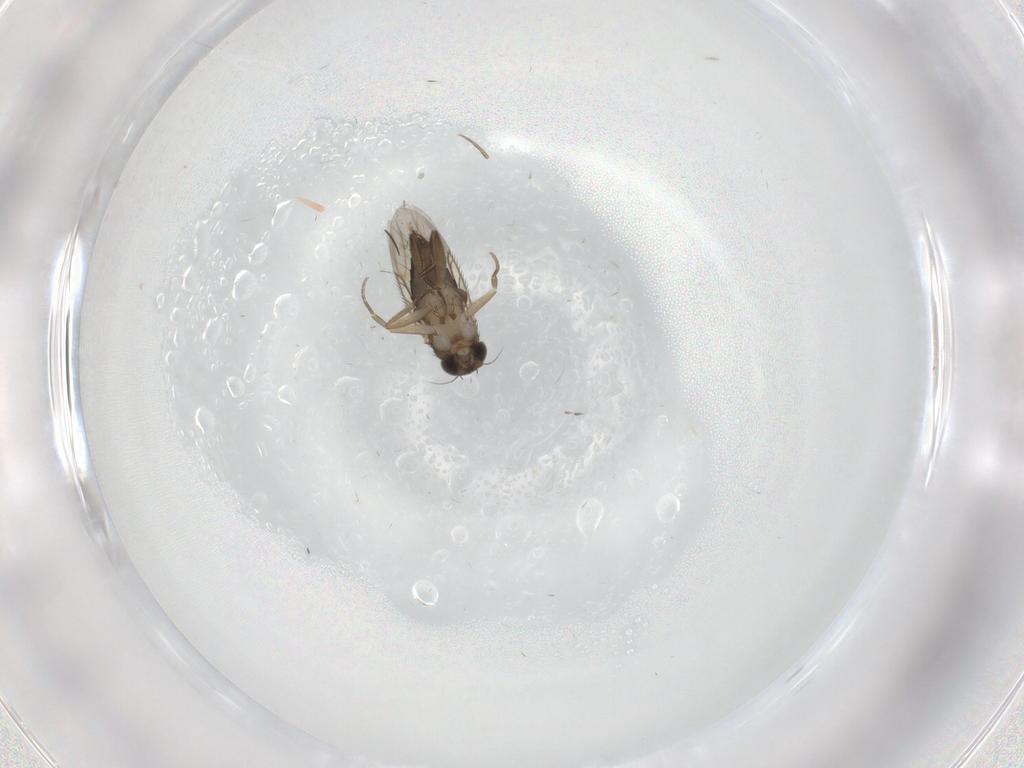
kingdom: Animalia
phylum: Arthropoda
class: Insecta
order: Diptera
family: Phoridae
